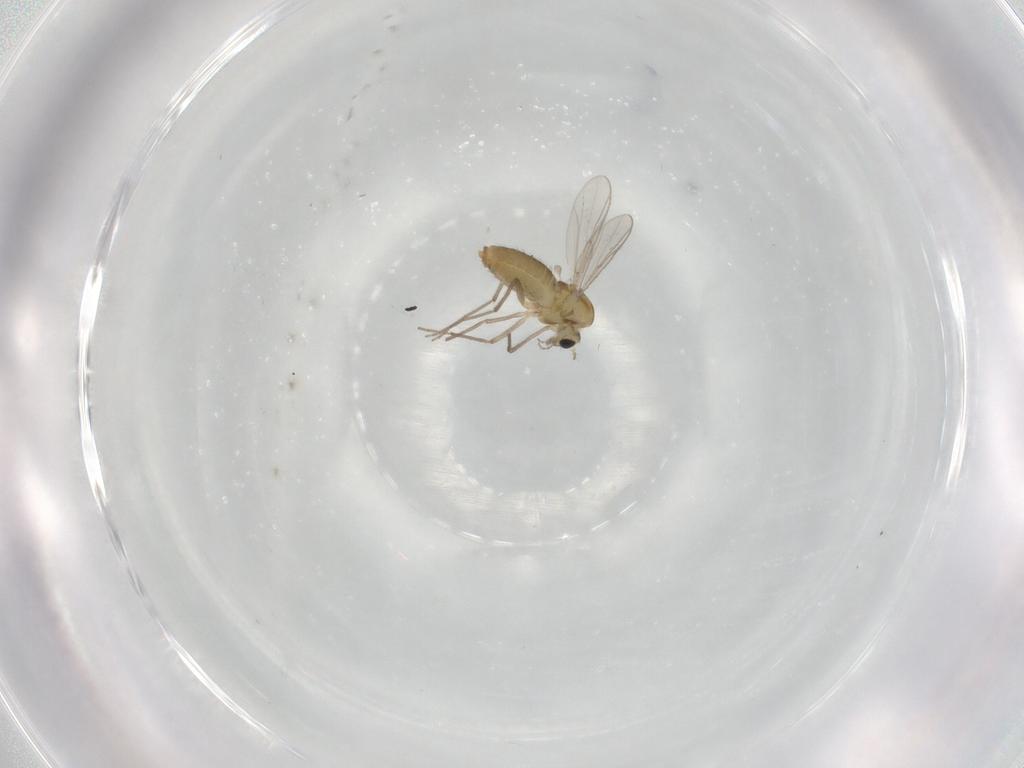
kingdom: Animalia
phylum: Arthropoda
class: Insecta
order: Diptera
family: Chironomidae
